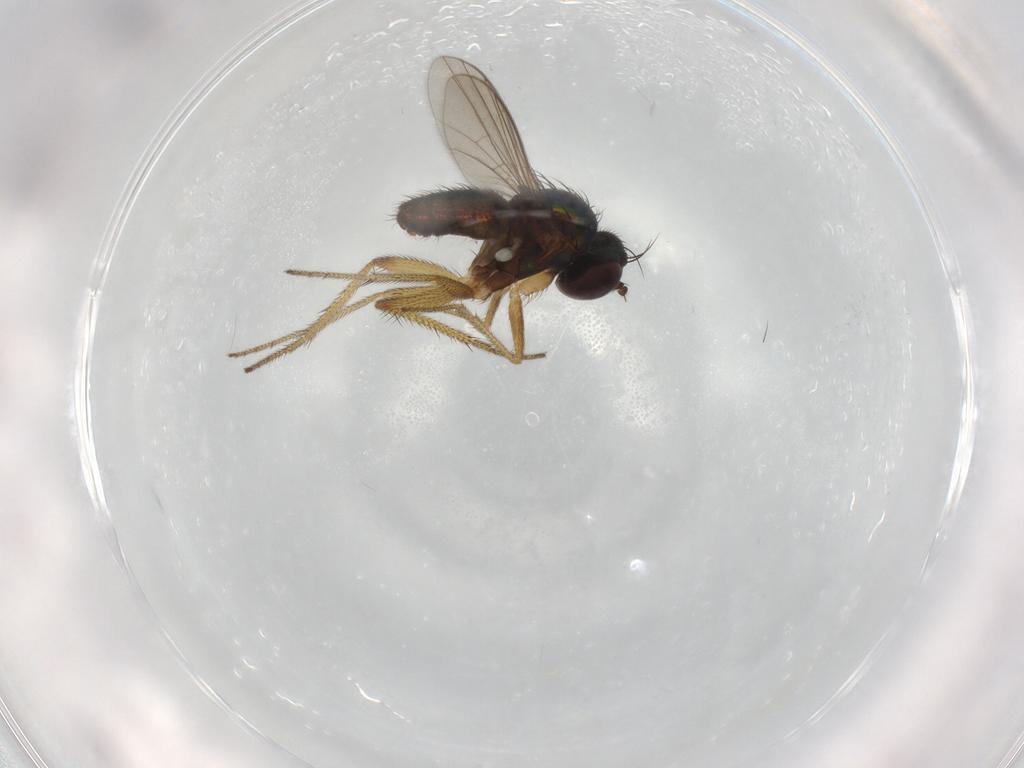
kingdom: Animalia
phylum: Arthropoda
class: Insecta
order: Diptera
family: Chironomidae
